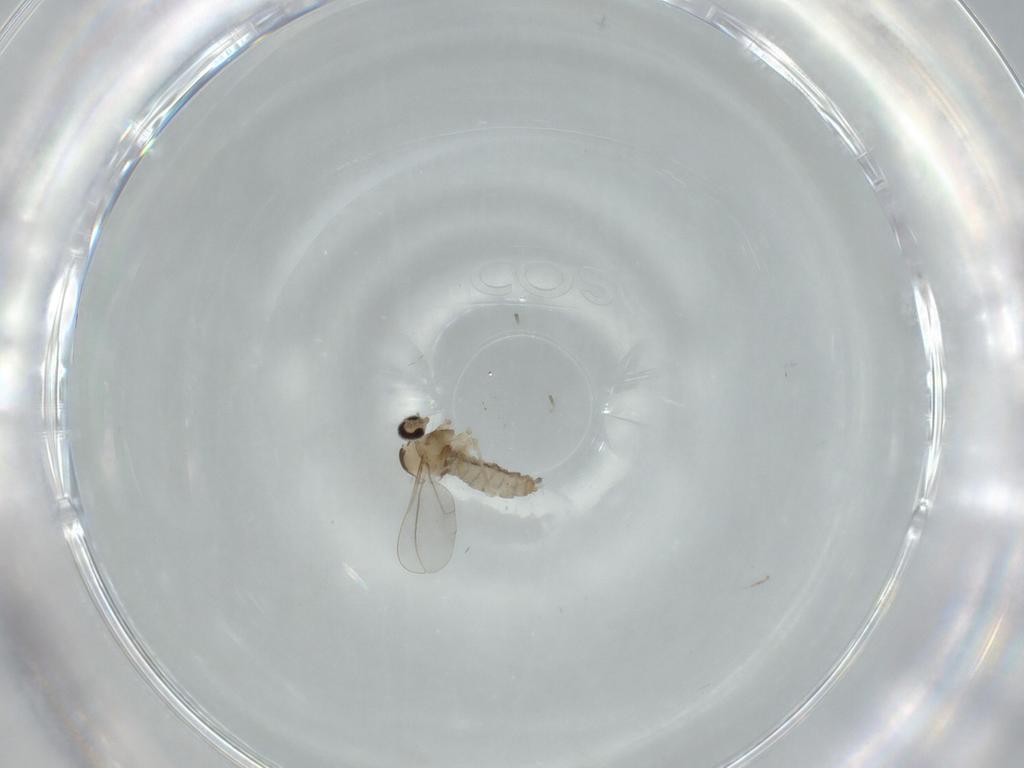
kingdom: Animalia
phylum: Arthropoda
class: Insecta
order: Diptera
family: Cecidomyiidae
